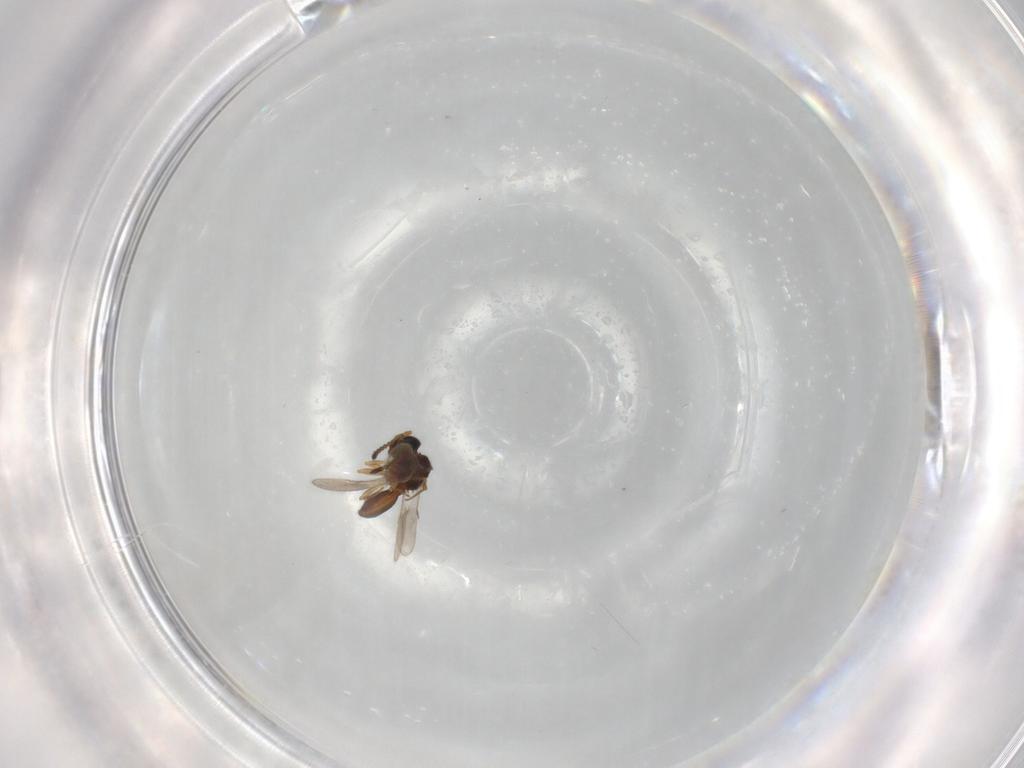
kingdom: Animalia
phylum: Arthropoda
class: Insecta
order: Hymenoptera
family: Scelionidae
